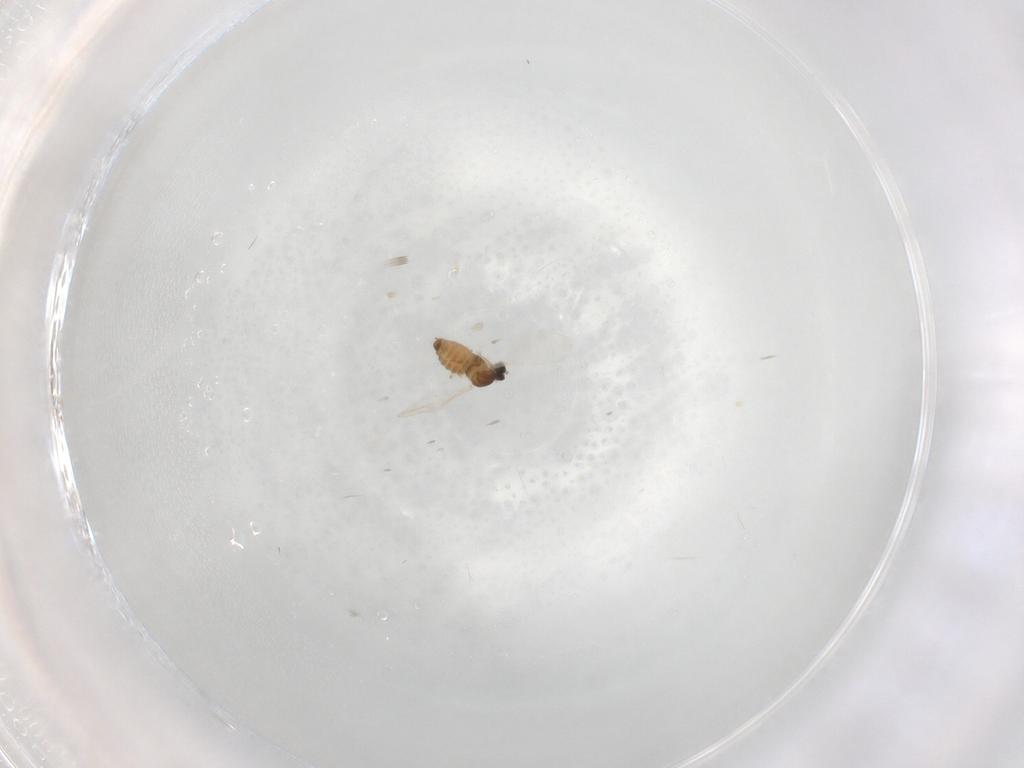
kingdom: Animalia
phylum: Arthropoda
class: Insecta
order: Diptera
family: Cecidomyiidae
